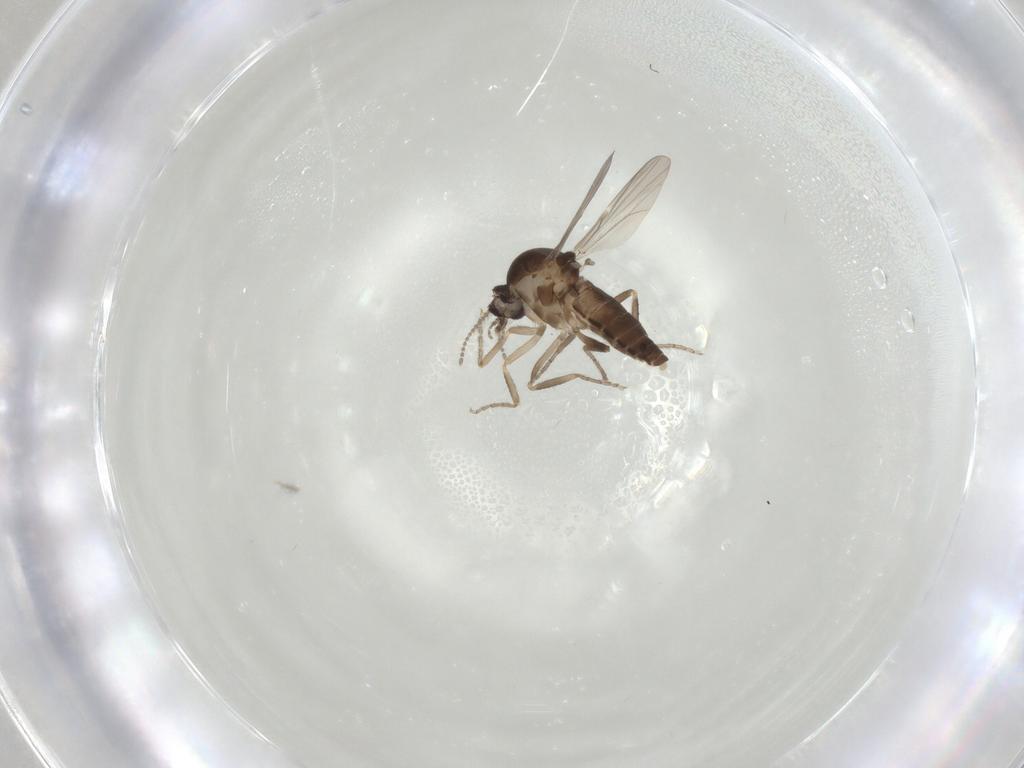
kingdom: Animalia
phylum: Arthropoda
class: Insecta
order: Diptera
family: Ceratopogonidae
